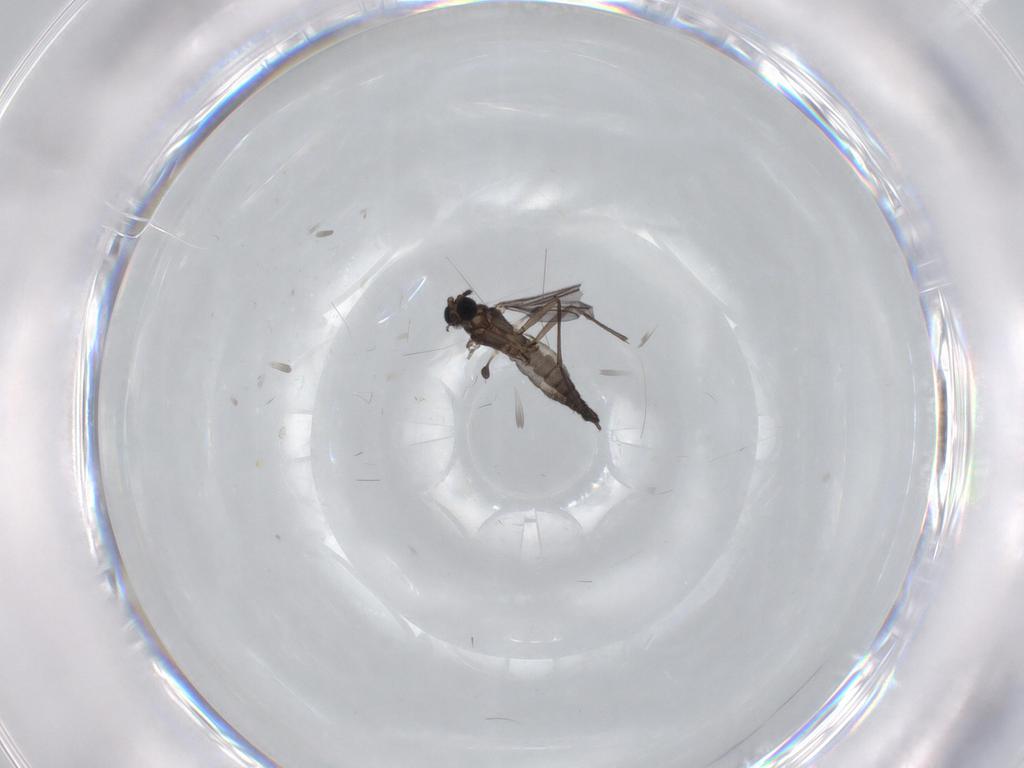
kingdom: Animalia
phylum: Arthropoda
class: Insecta
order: Diptera
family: Sciaridae
